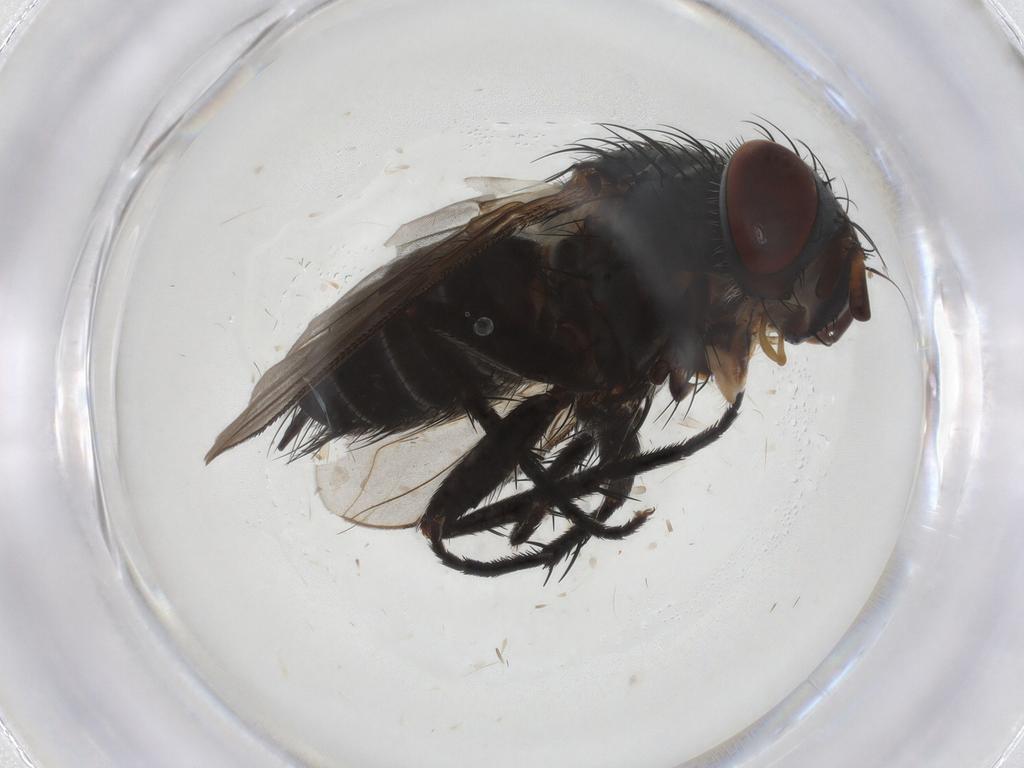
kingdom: Animalia
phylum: Arthropoda
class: Insecta
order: Diptera
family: Tachinidae
